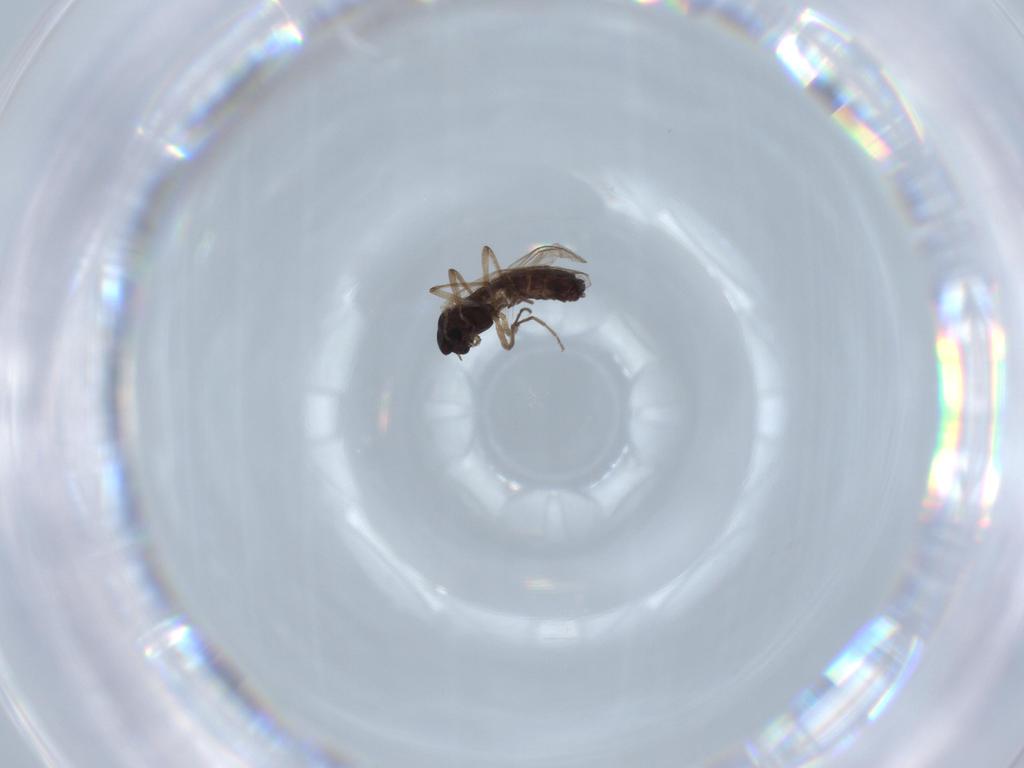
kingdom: Animalia
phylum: Arthropoda
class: Insecta
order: Diptera
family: Chironomidae
